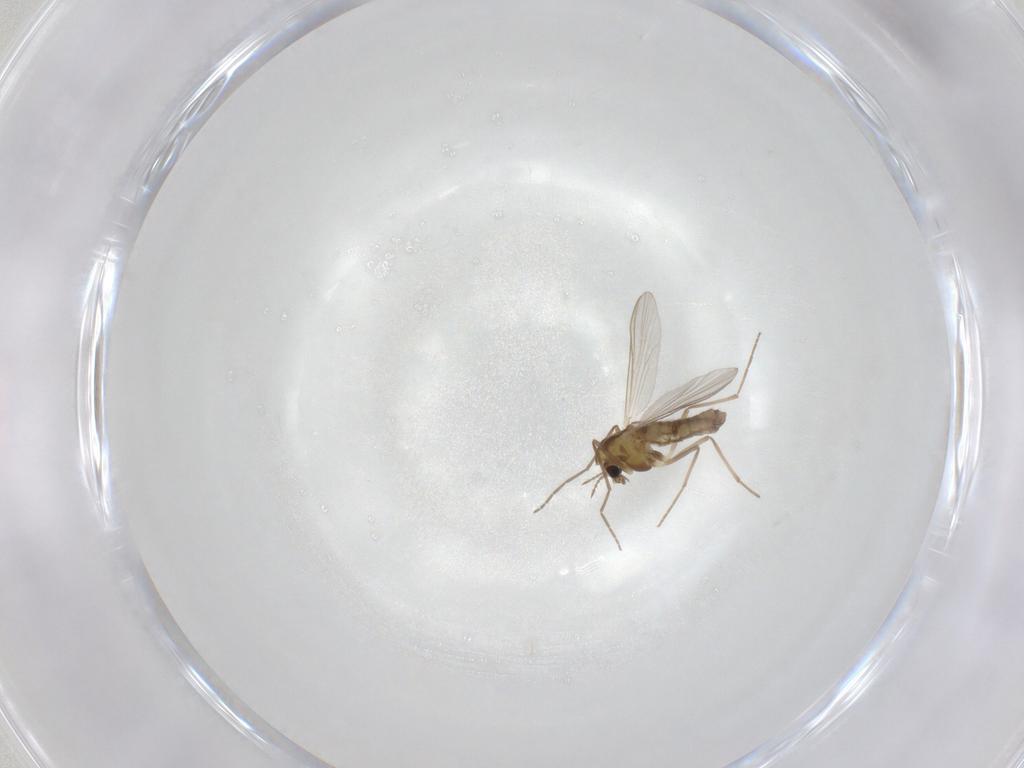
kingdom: Animalia
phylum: Arthropoda
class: Insecta
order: Diptera
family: Chironomidae
